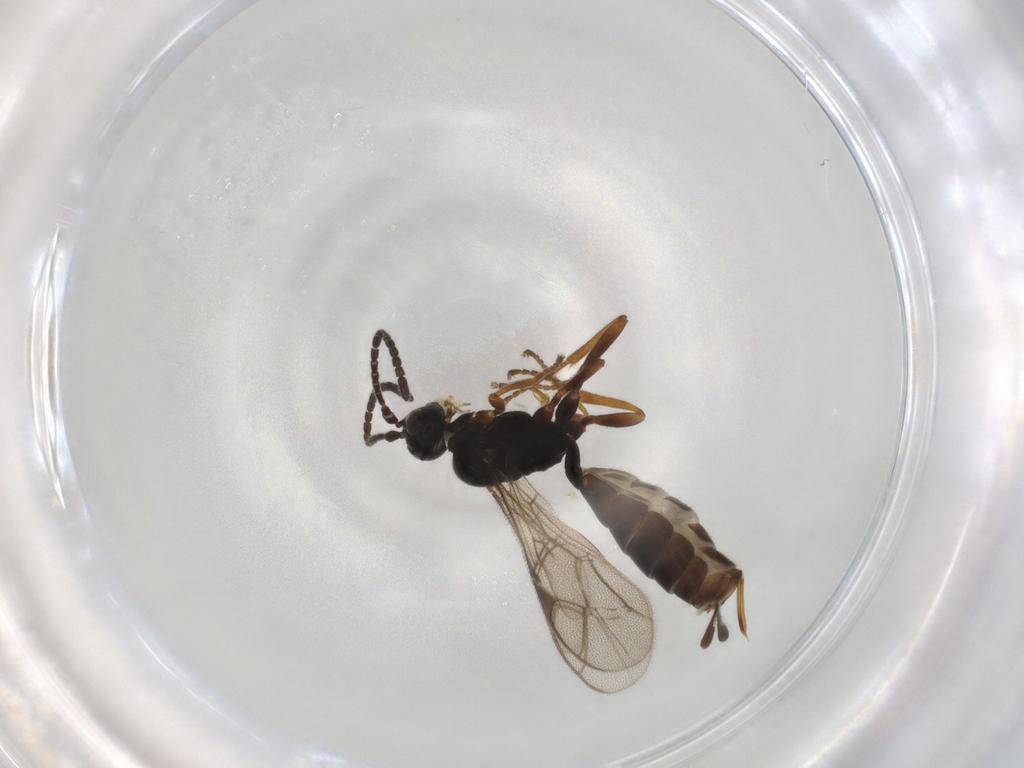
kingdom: Animalia
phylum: Arthropoda
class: Insecta
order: Hymenoptera
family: Ichneumonidae
